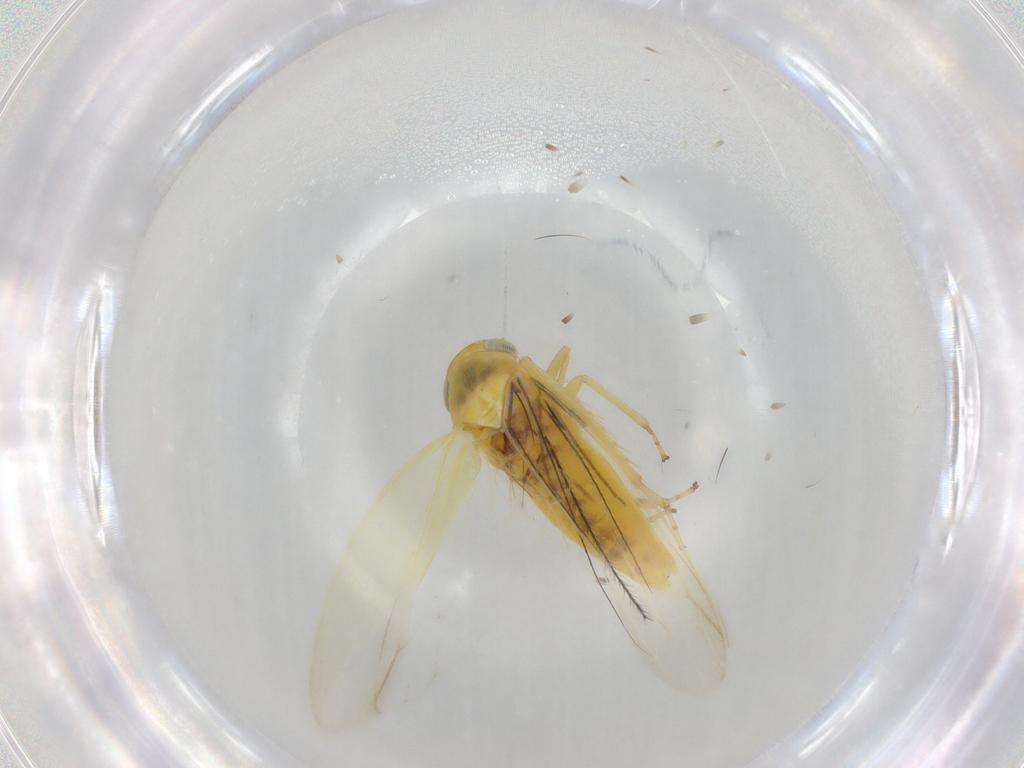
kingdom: Animalia
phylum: Arthropoda
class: Insecta
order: Hemiptera
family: Cicadellidae
